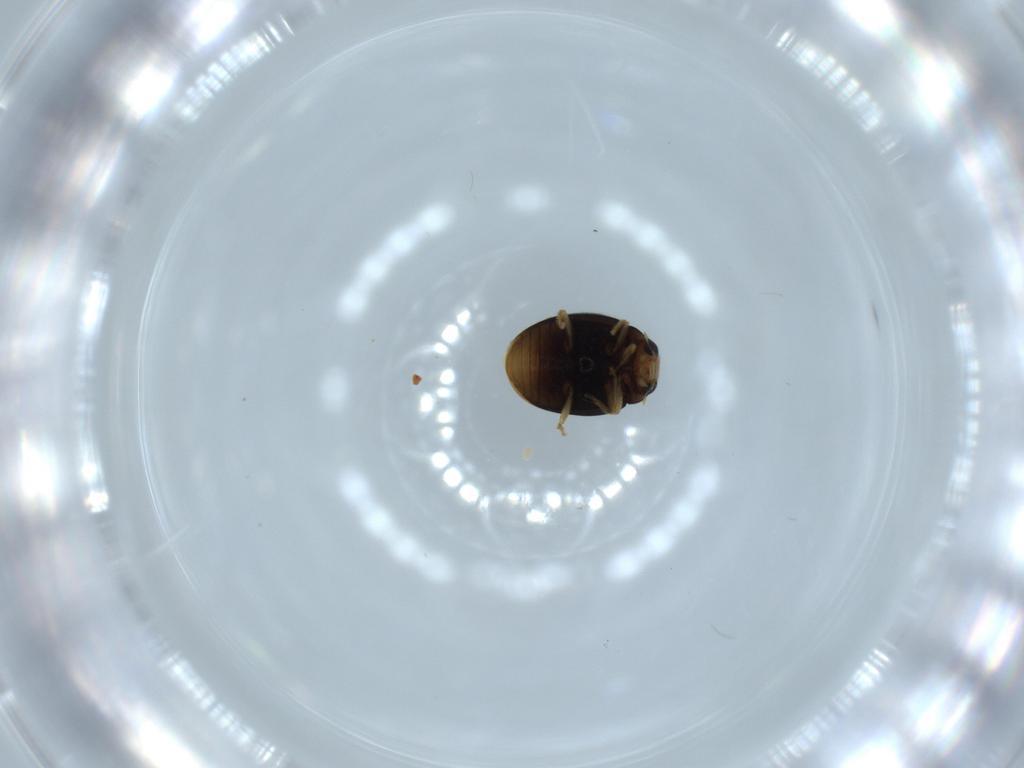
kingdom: Animalia
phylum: Arthropoda
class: Insecta
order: Coleoptera
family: Coccinellidae
